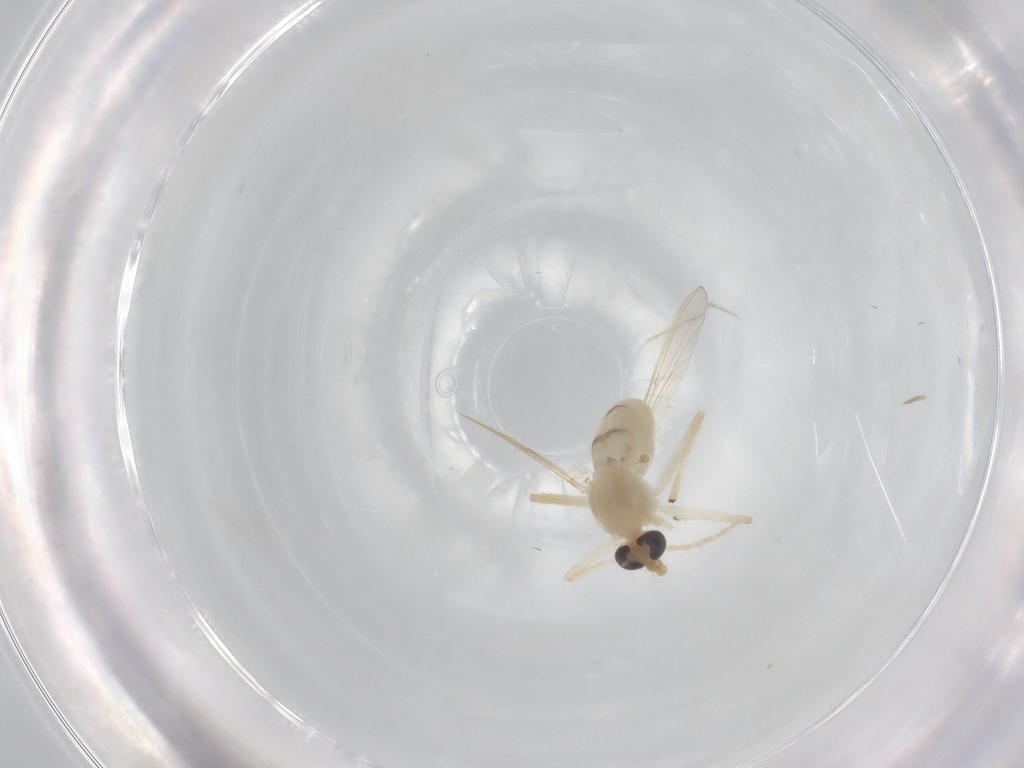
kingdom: Animalia
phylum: Arthropoda
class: Insecta
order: Diptera
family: Chironomidae
